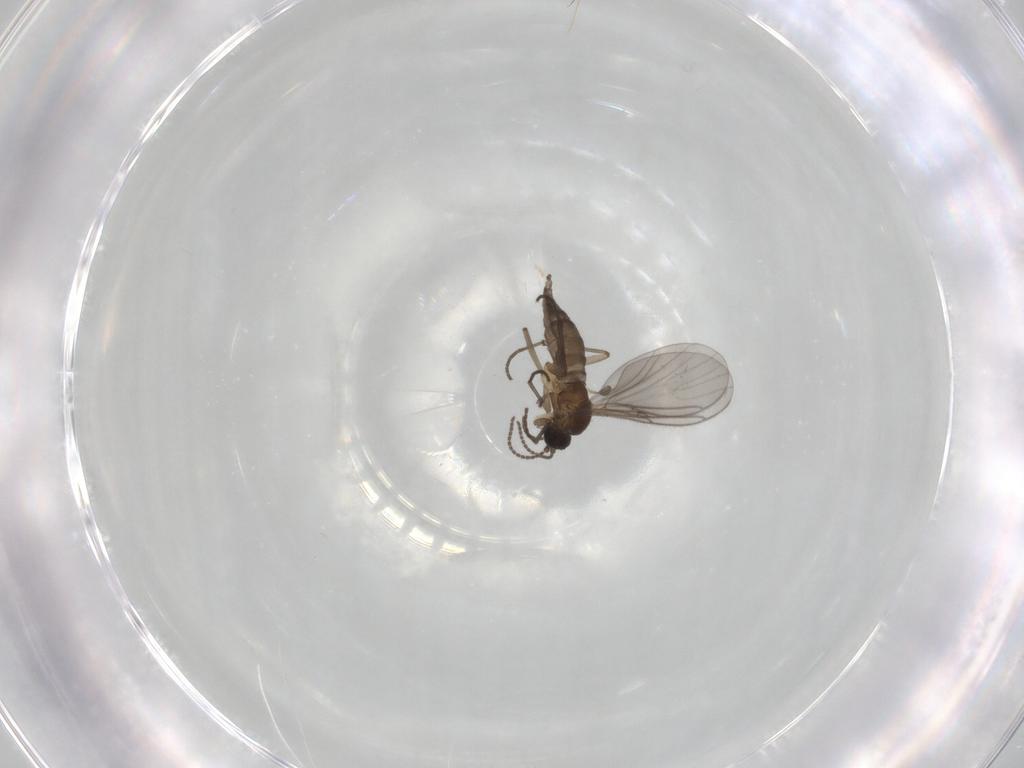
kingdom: Animalia
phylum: Arthropoda
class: Insecta
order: Diptera
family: Sciaridae
